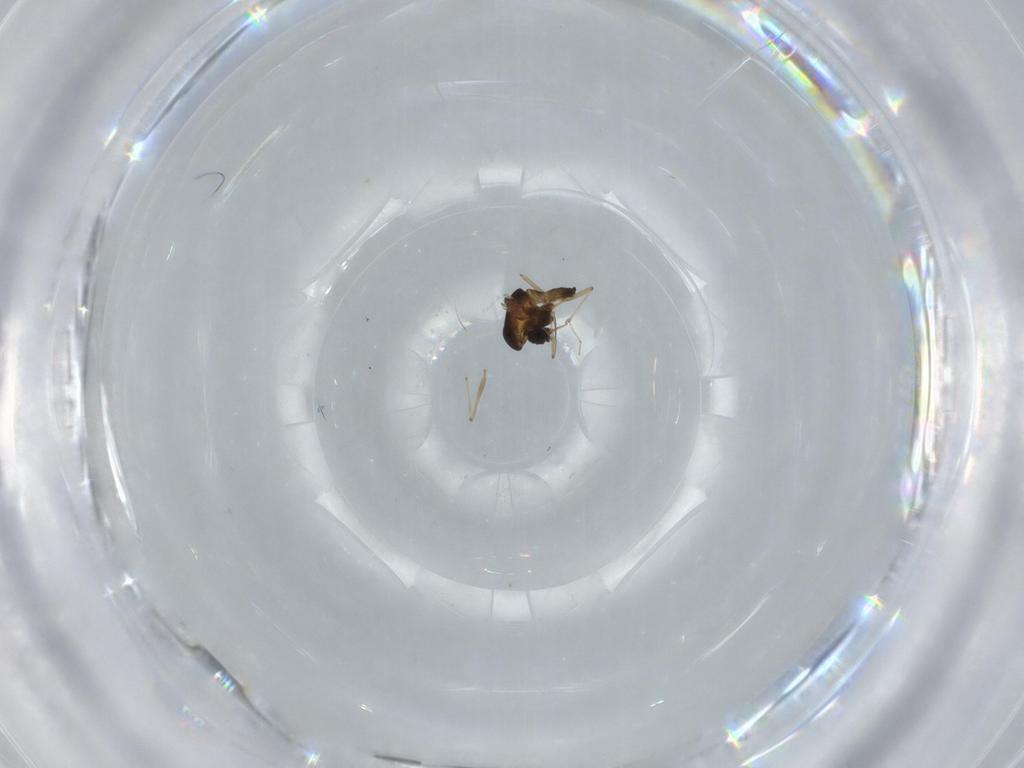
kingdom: Animalia
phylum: Arthropoda
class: Insecta
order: Diptera
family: Chironomidae
